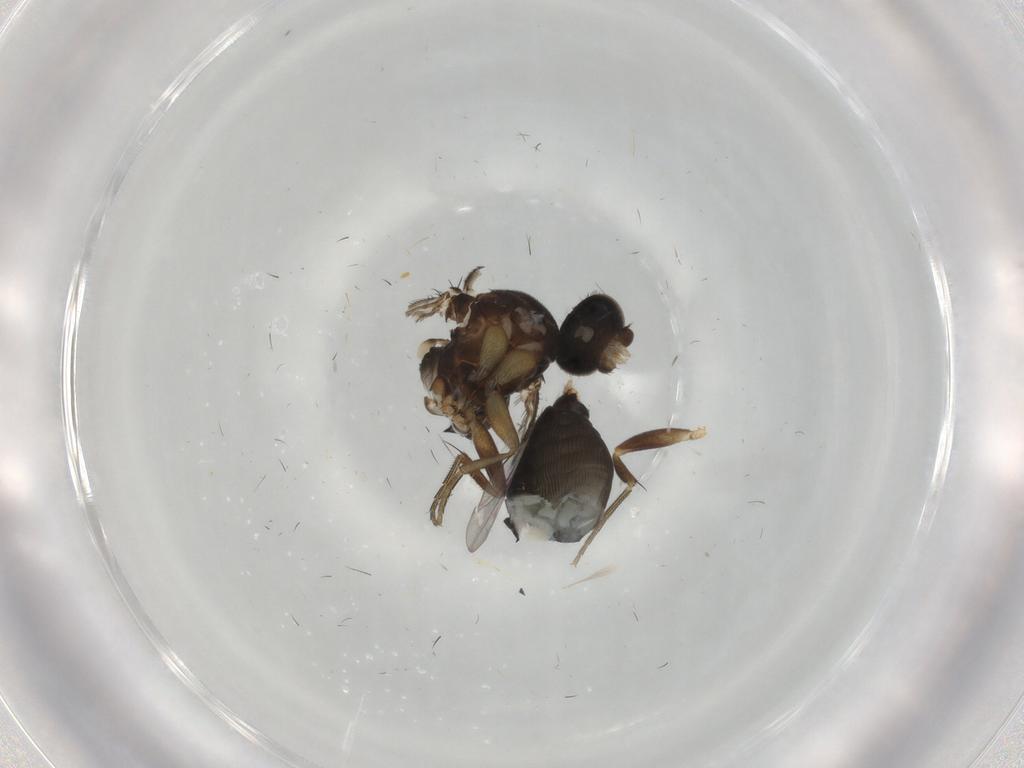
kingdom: Animalia
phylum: Arthropoda
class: Insecta
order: Diptera
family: Phoridae
